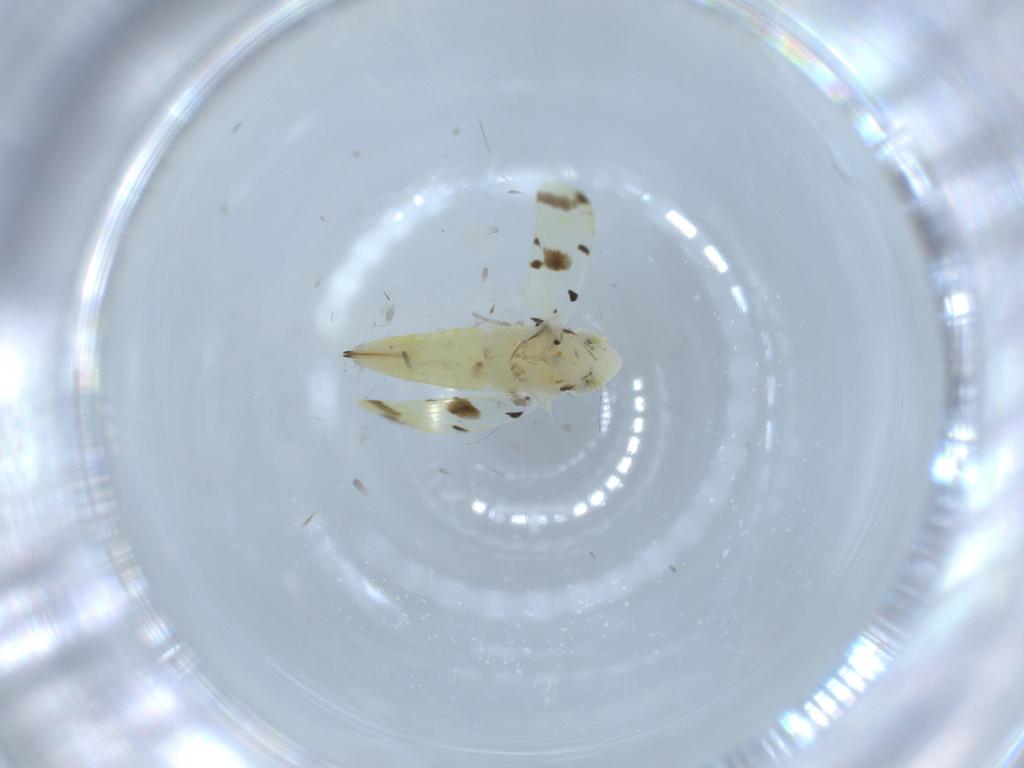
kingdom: Animalia
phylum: Arthropoda
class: Insecta
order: Hemiptera
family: Cicadellidae
